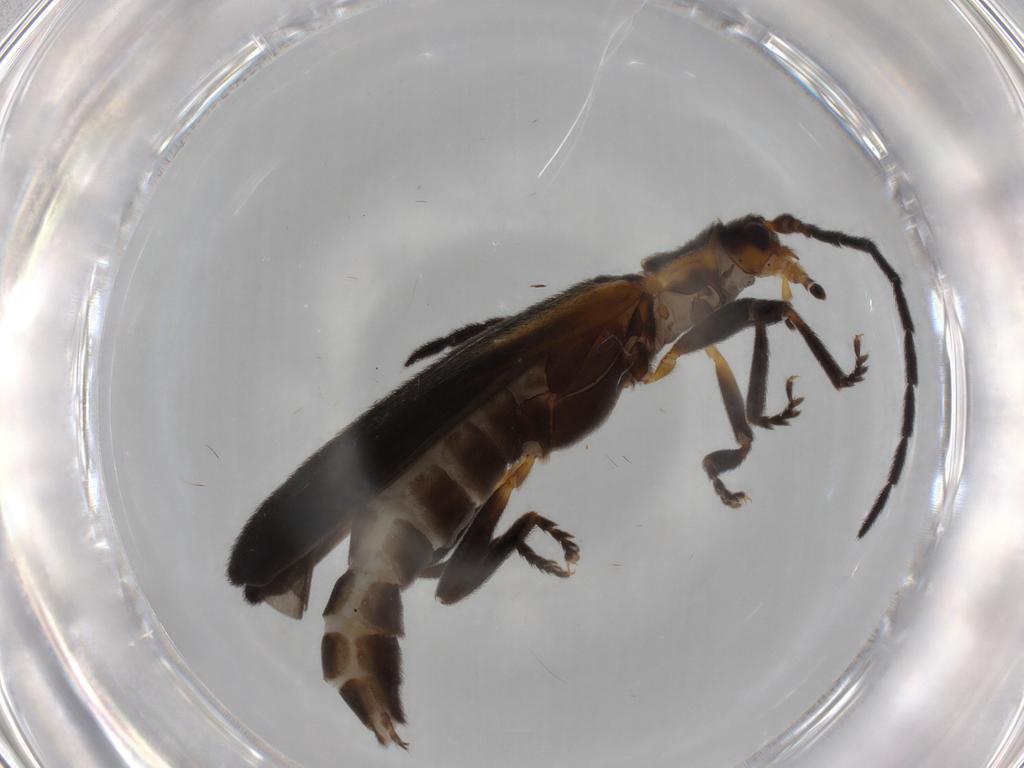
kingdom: Animalia
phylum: Arthropoda
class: Insecta
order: Coleoptera
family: Lycidae
